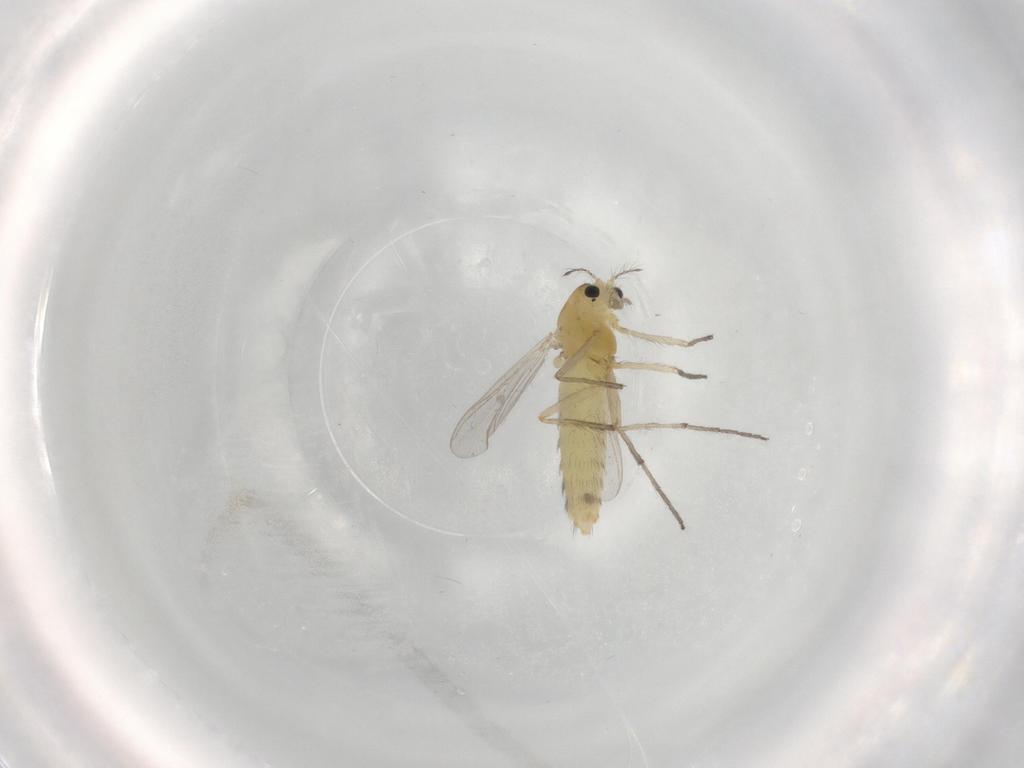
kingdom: Animalia
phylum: Arthropoda
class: Insecta
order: Diptera
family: Chironomidae
